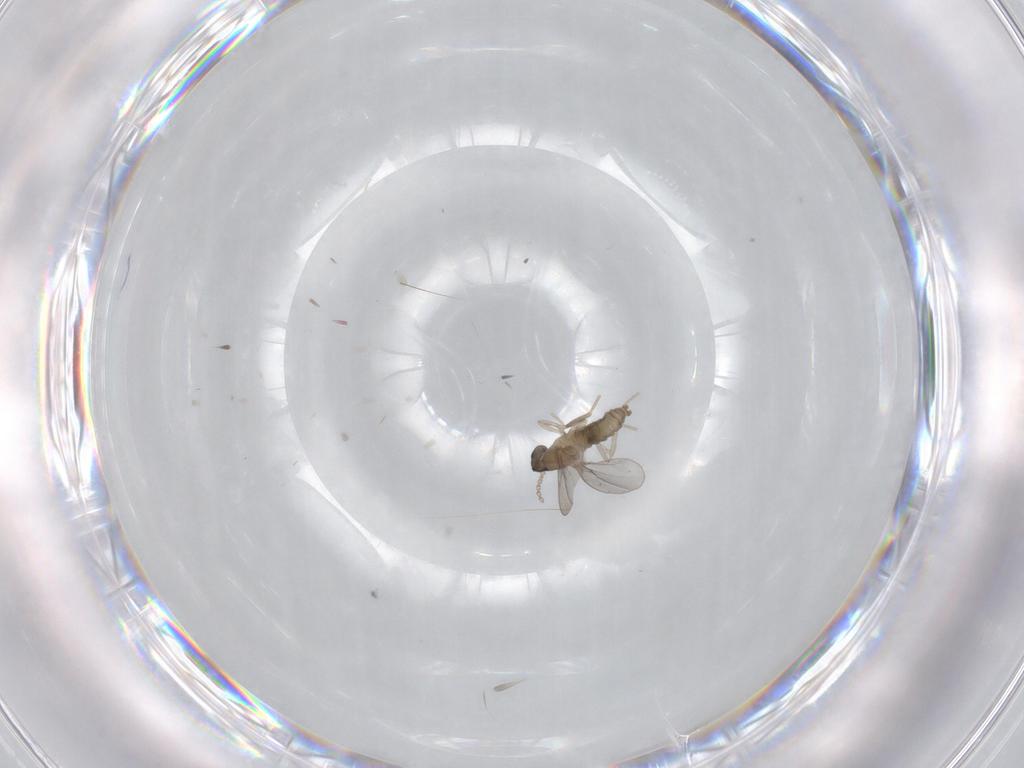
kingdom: Animalia
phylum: Arthropoda
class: Insecta
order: Diptera
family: Cecidomyiidae
